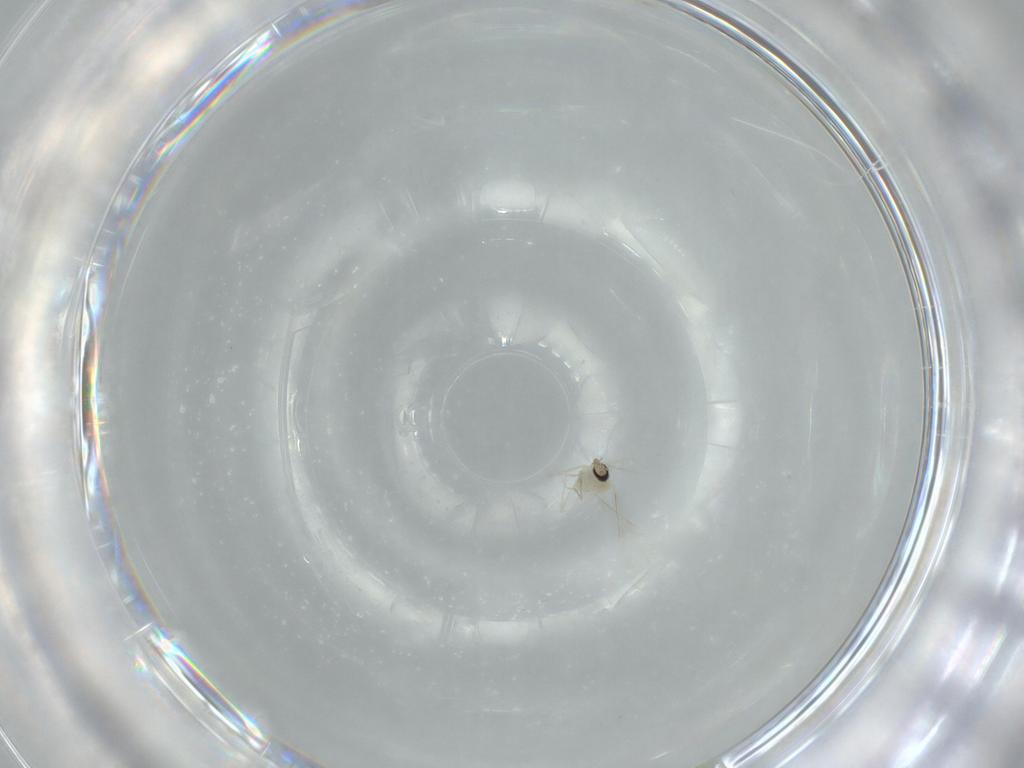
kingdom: Animalia
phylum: Arthropoda
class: Insecta
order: Diptera
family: Cecidomyiidae
